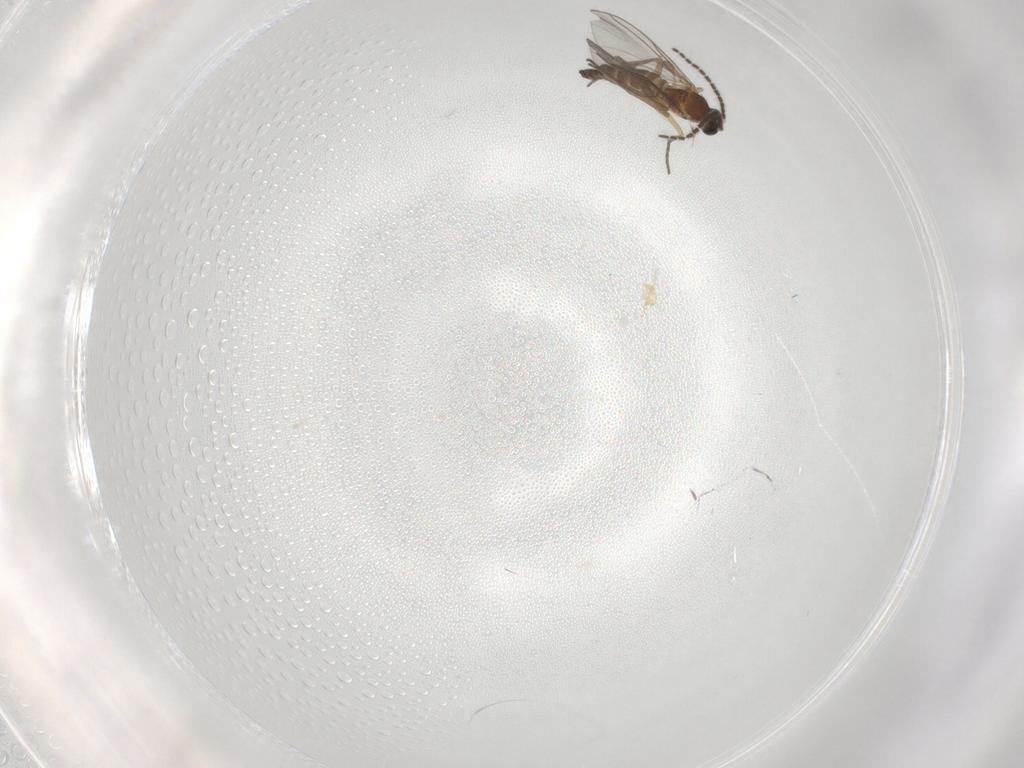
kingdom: Animalia
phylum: Arthropoda
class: Insecta
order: Diptera
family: Sciaridae
